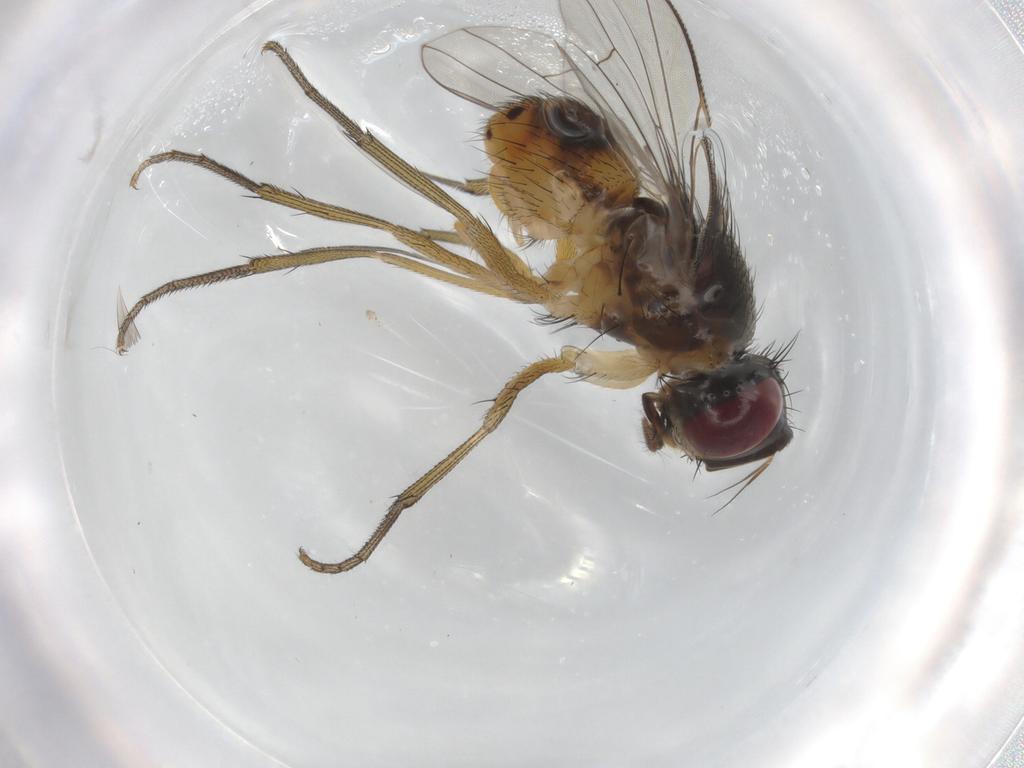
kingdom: Animalia
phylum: Arthropoda
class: Insecta
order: Diptera
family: Muscidae
